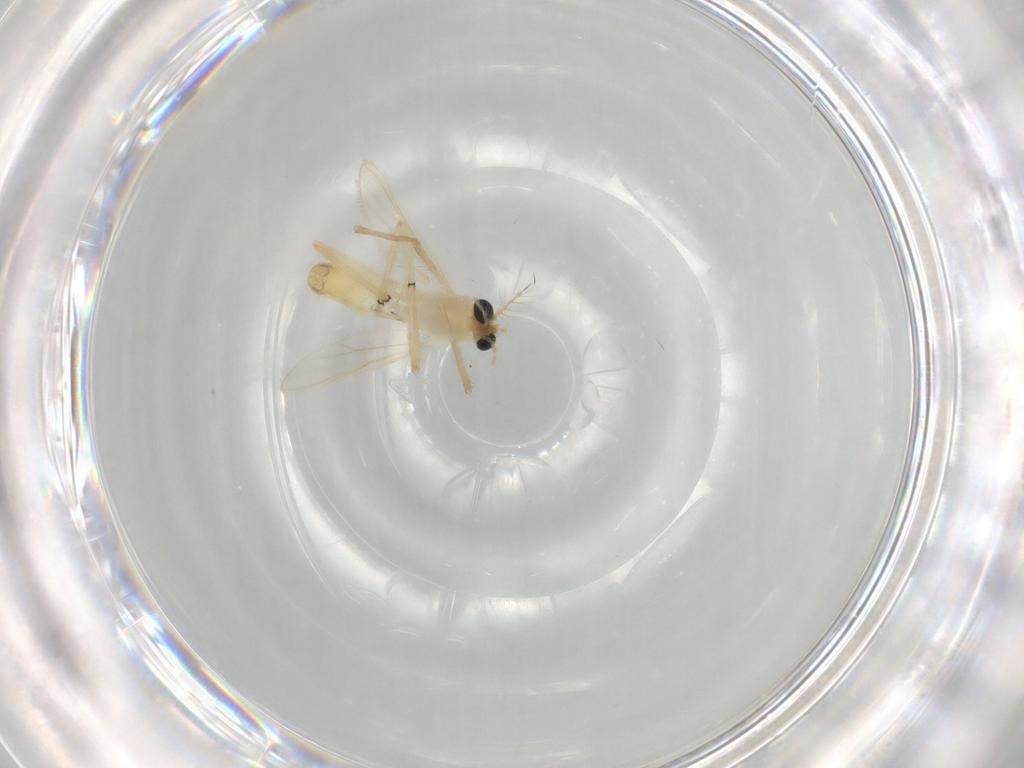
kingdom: Animalia
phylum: Arthropoda
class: Insecta
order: Diptera
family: Chironomidae
